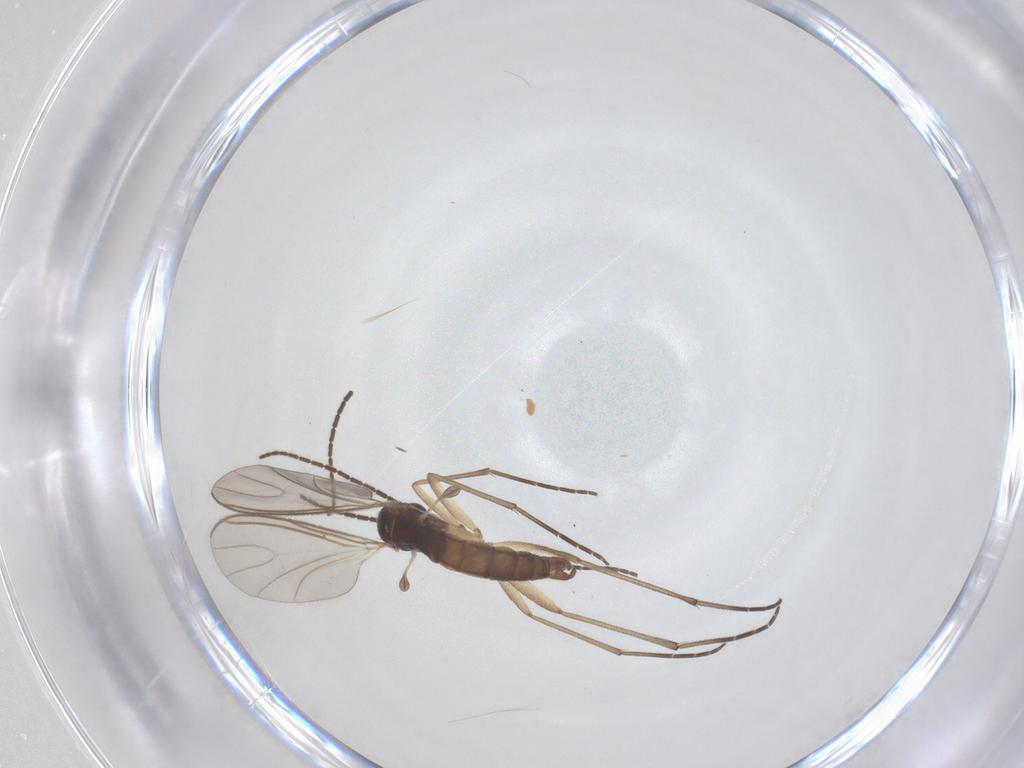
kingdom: Animalia
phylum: Arthropoda
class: Insecta
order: Diptera
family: Sciaridae
